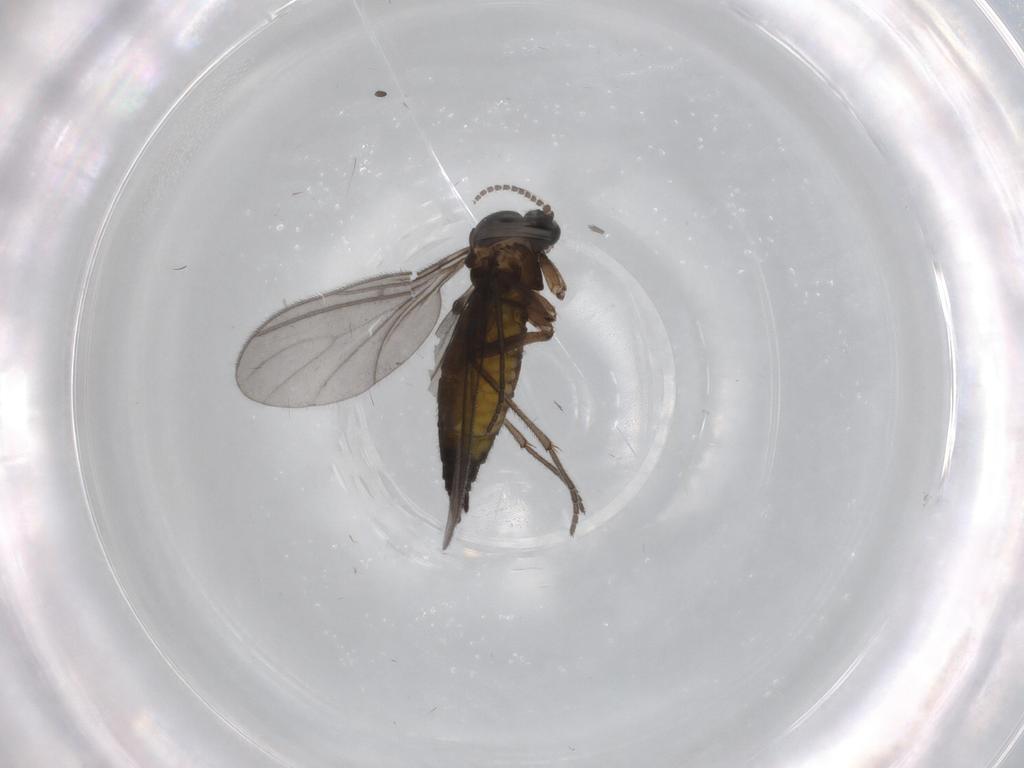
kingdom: Animalia
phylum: Arthropoda
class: Insecta
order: Diptera
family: Sciaridae
